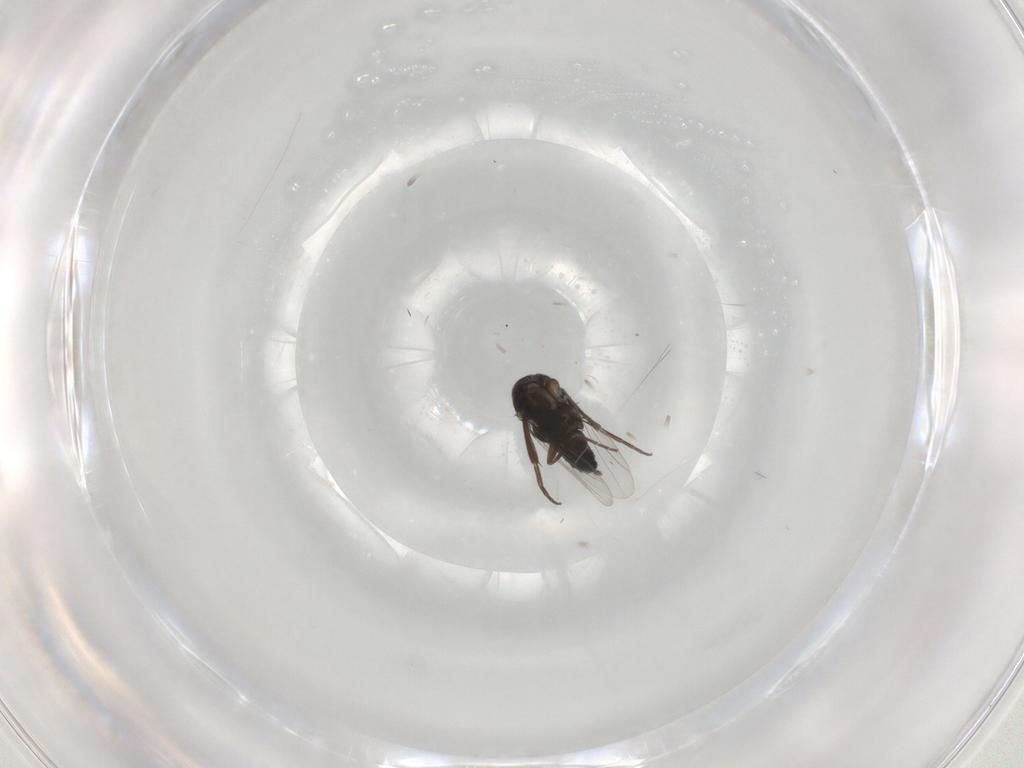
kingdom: Animalia
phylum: Arthropoda
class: Insecta
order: Diptera
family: Phoridae
